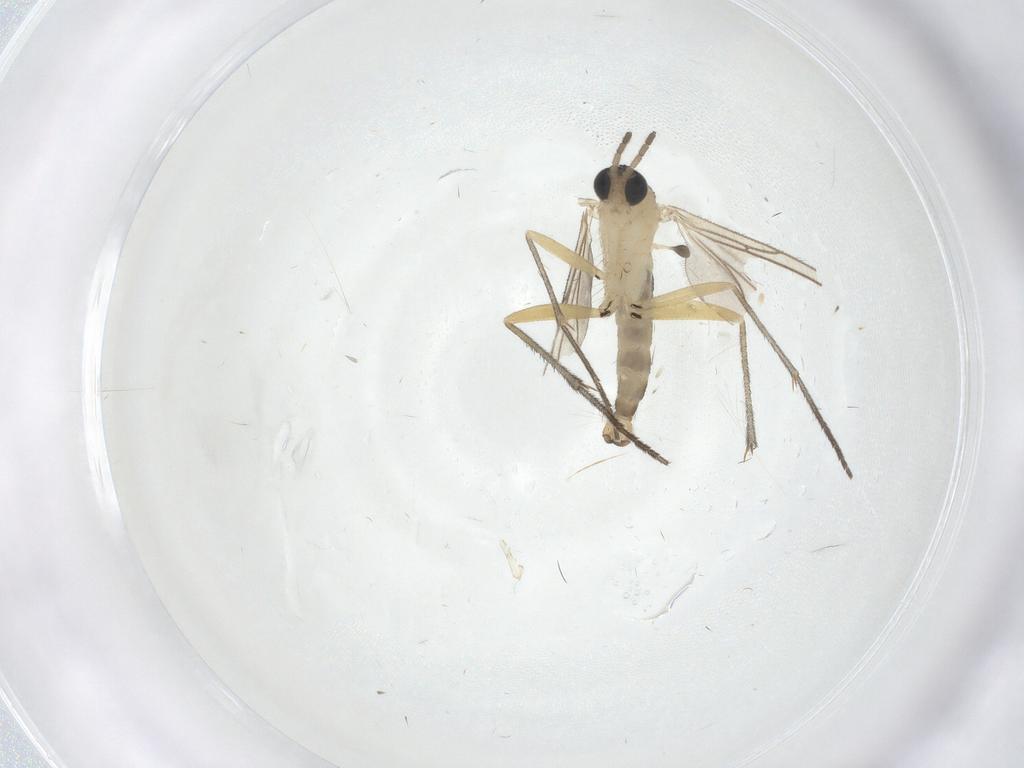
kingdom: Animalia
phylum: Arthropoda
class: Insecta
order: Diptera
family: Sciaridae
